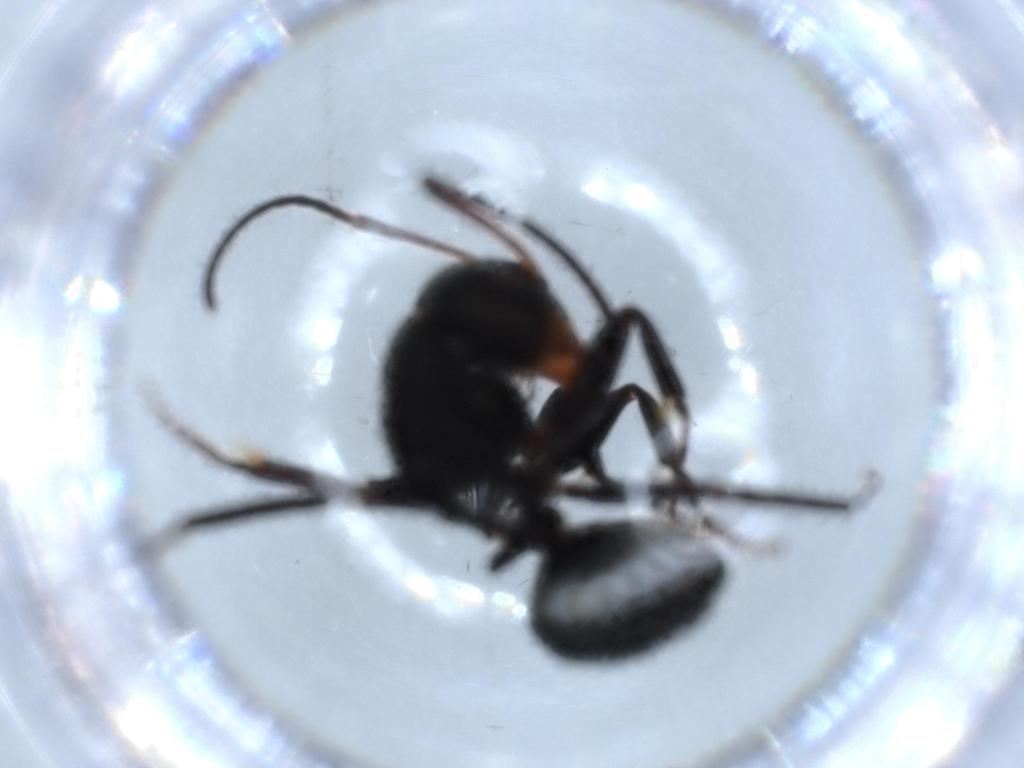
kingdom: Animalia
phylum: Arthropoda
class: Insecta
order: Hymenoptera
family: Formicidae
